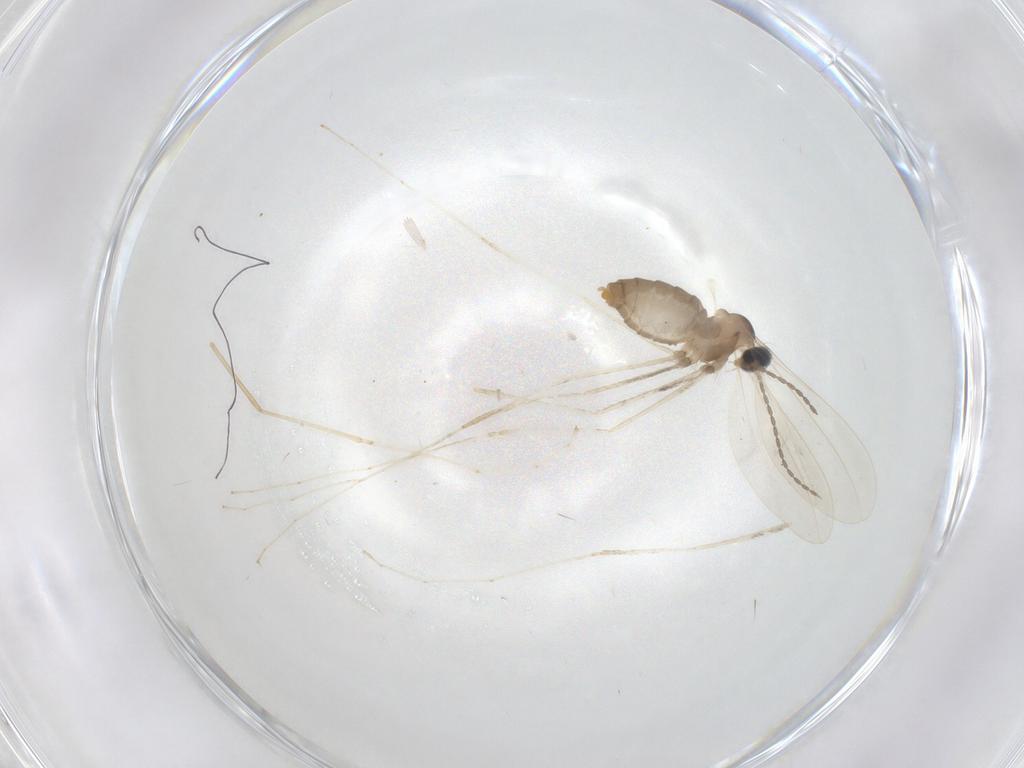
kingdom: Animalia
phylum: Arthropoda
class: Insecta
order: Diptera
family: Cecidomyiidae
